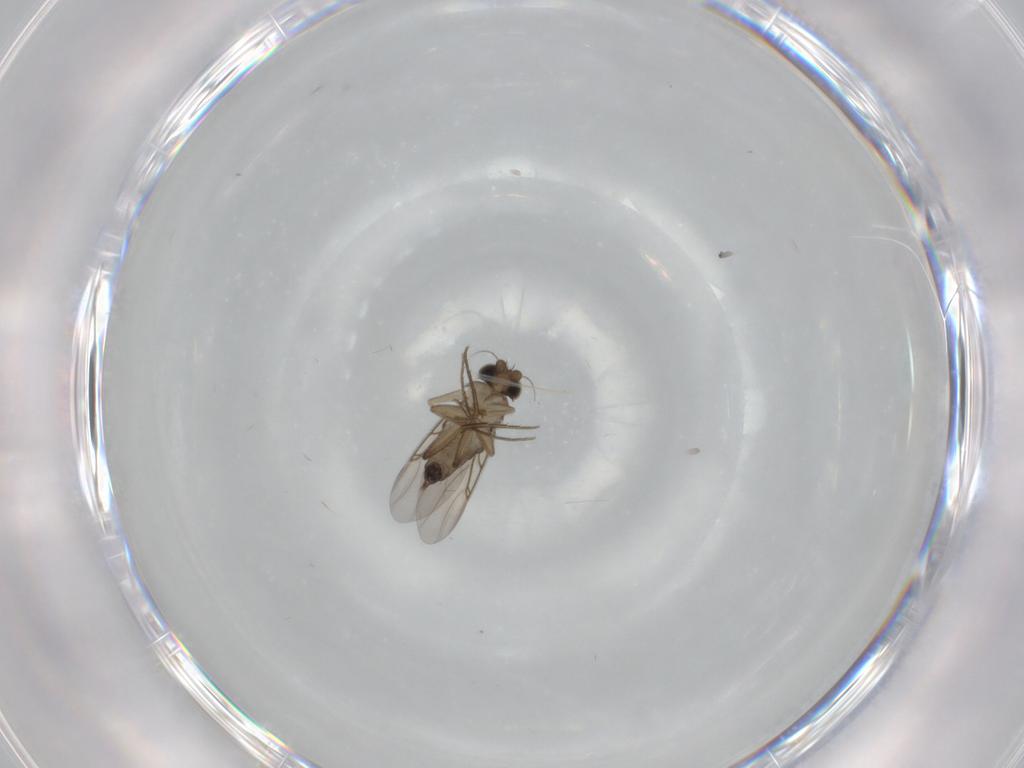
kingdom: Animalia
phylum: Arthropoda
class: Insecta
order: Diptera
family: Phoridae
